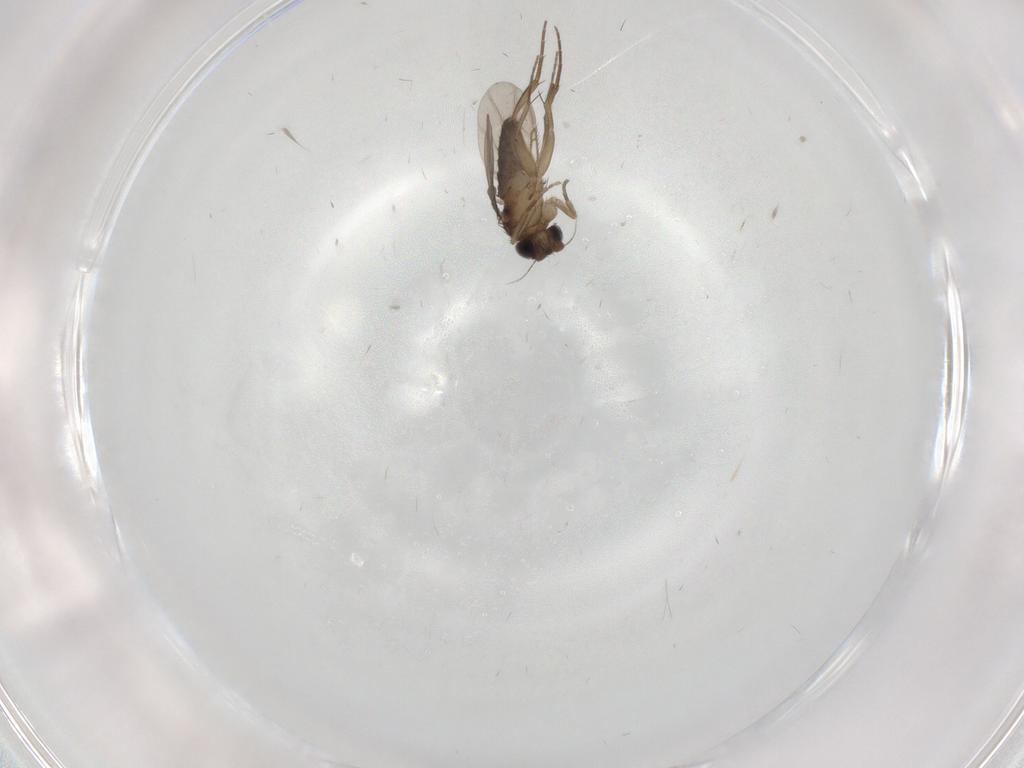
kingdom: Animalia
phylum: Arthropoda
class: Insecta
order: Diptera
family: Phoridae
